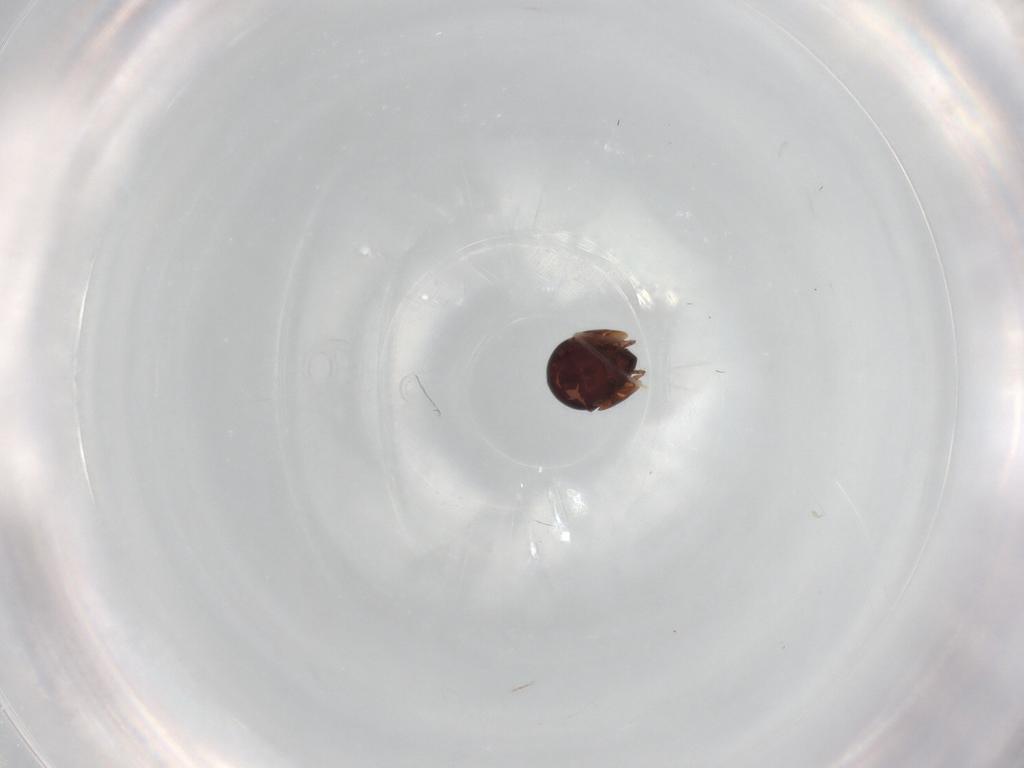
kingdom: Animalia
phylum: Arthropoda
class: Arachnida
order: Sarcoptiformes
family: Galumnidae
